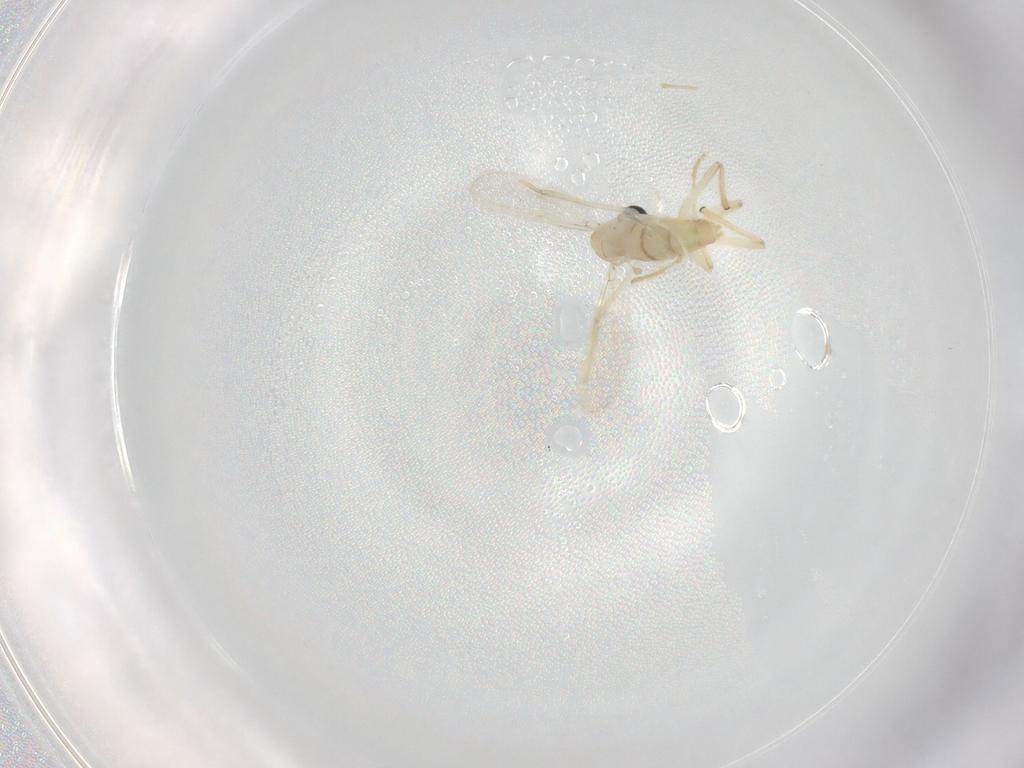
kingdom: Animalia
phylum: Arthropoda
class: Insecta
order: Diptera
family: Chironomidae
